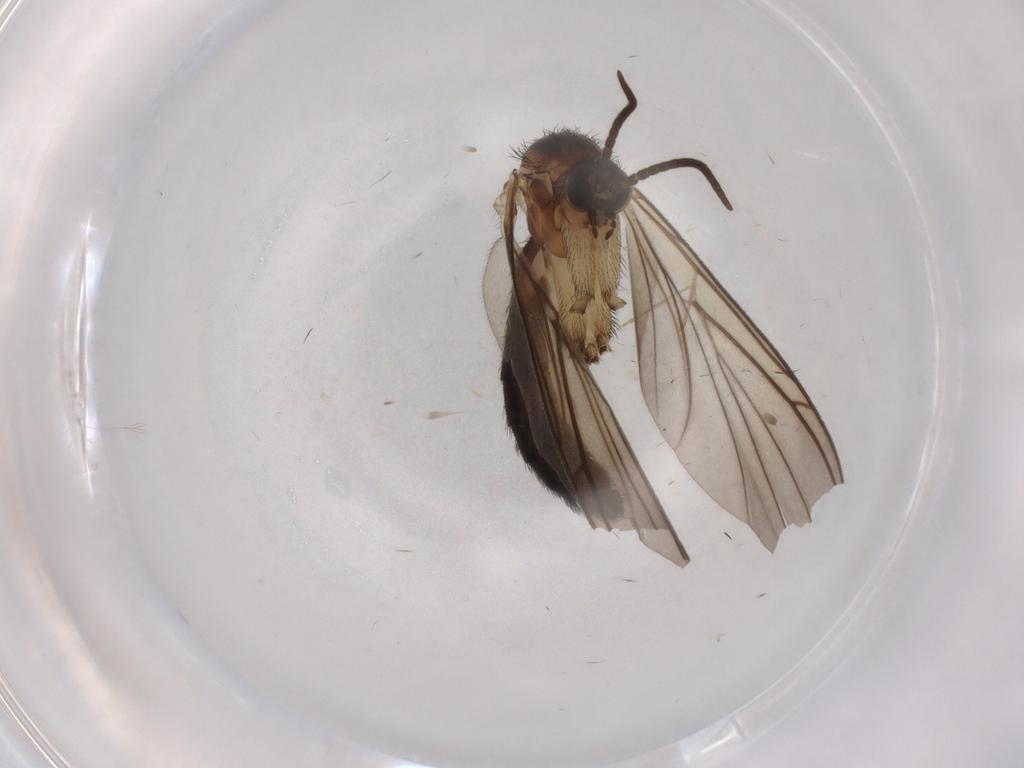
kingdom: Animalia
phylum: Arthropoda
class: Insecta
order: Diptera
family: Keroplatidae
